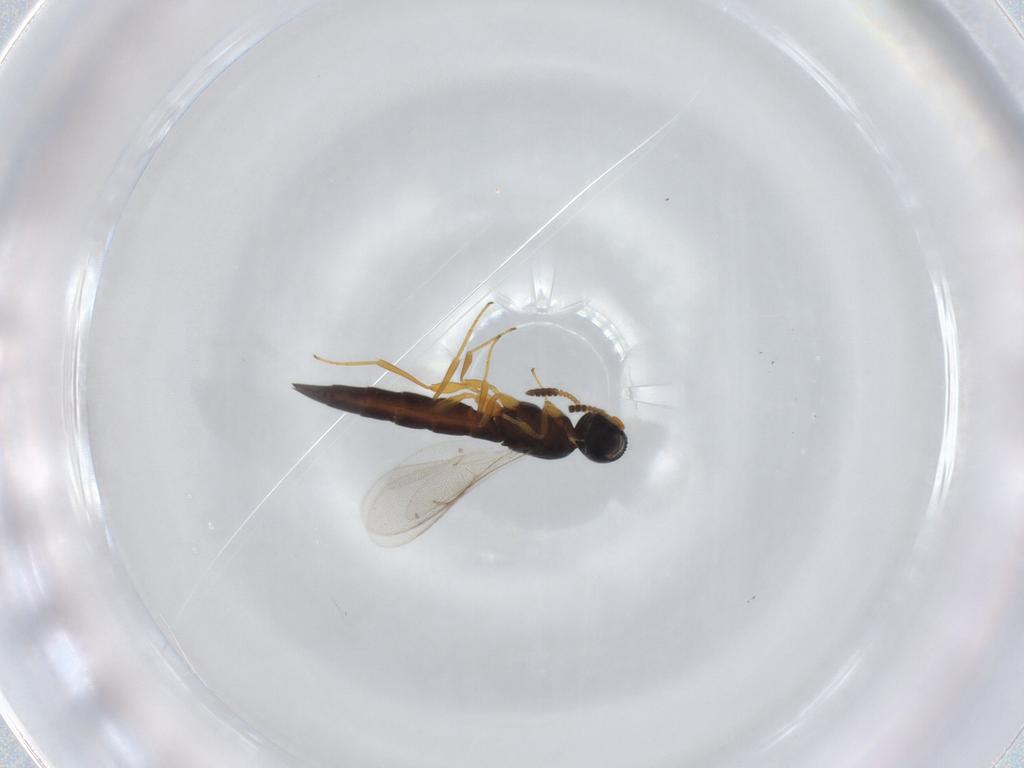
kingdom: Animalia
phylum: Arthropoda
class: Insecta
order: Hymenoptera
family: Scelionidae
